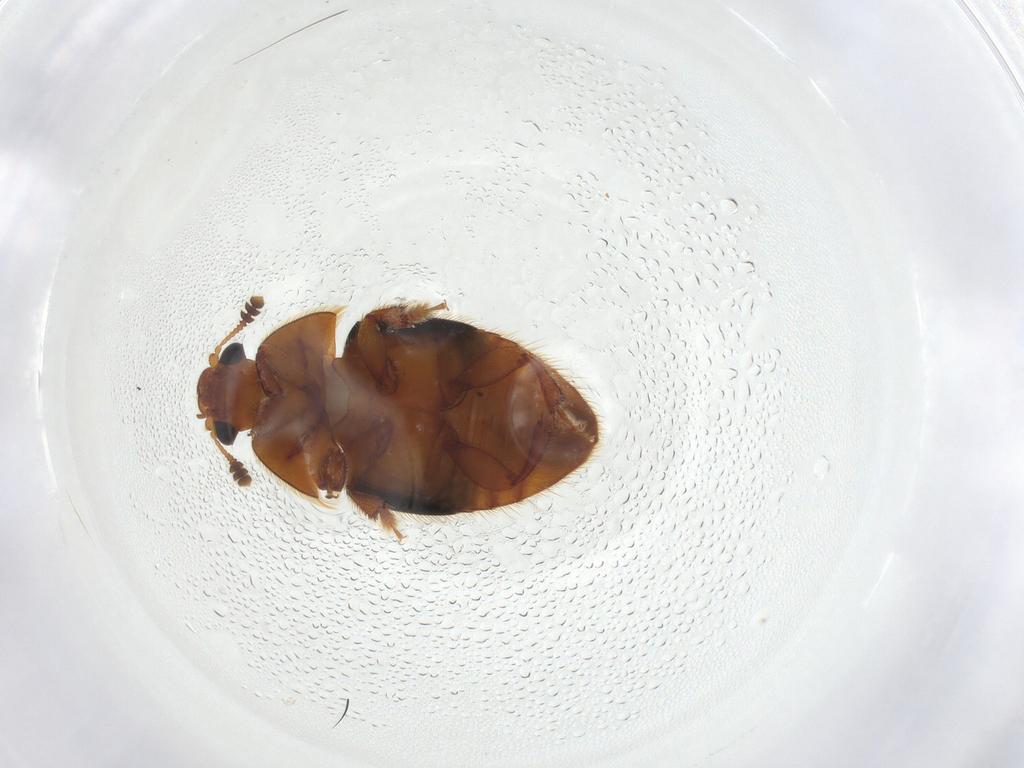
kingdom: Animalia
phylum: Arthropoda
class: Insecta
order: Coleoptera
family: Nitidulidae
